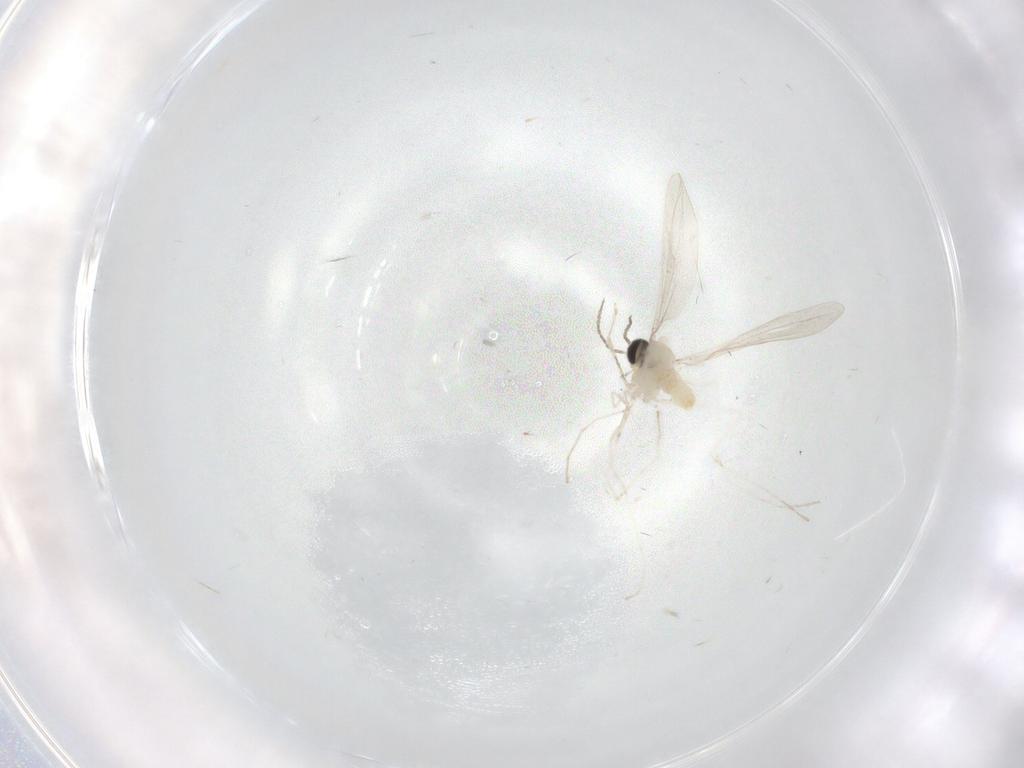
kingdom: Animalia
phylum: Arthropoda
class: Insecta
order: Diptera
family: Cecidomyiidae
